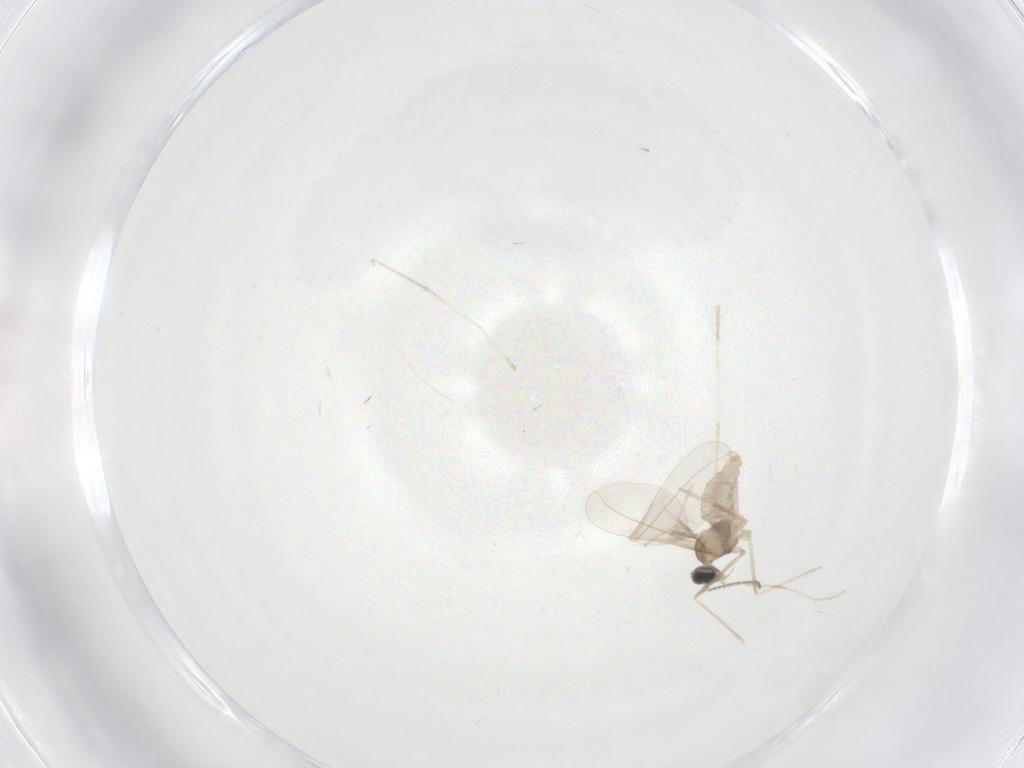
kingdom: Animalia
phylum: Arthropoda
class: Insecta
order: Diptera
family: Cecidomyiidae
